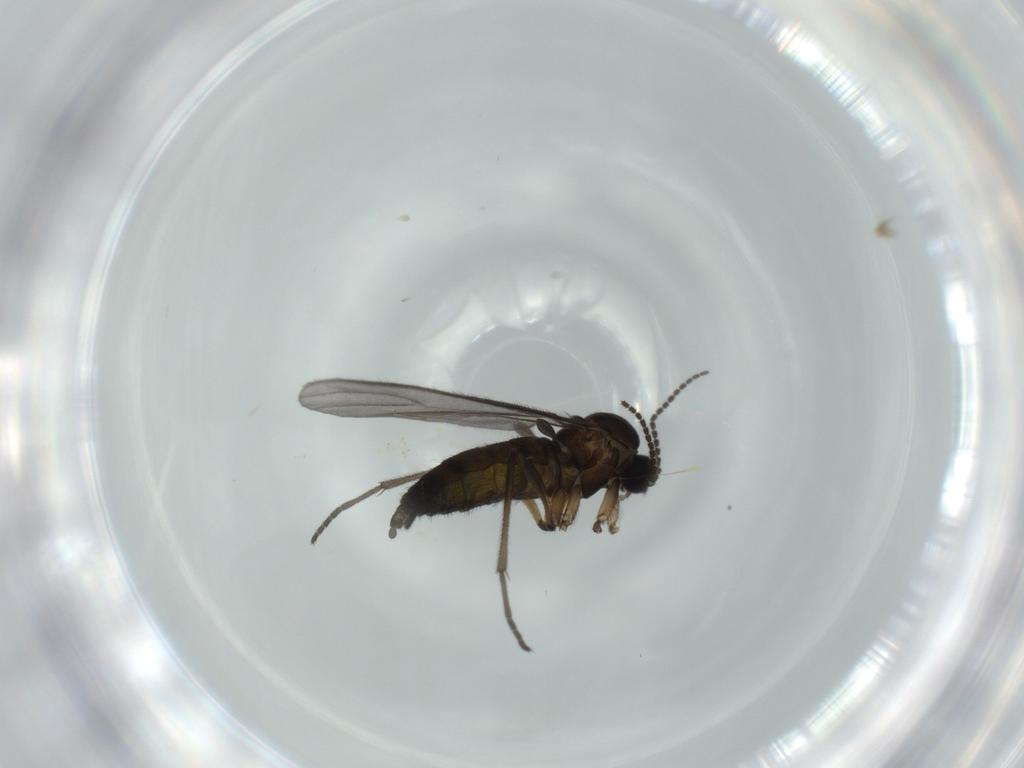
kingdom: Animalia
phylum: Arthropoda
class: Insecta
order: Diptera
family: Sciaridae
